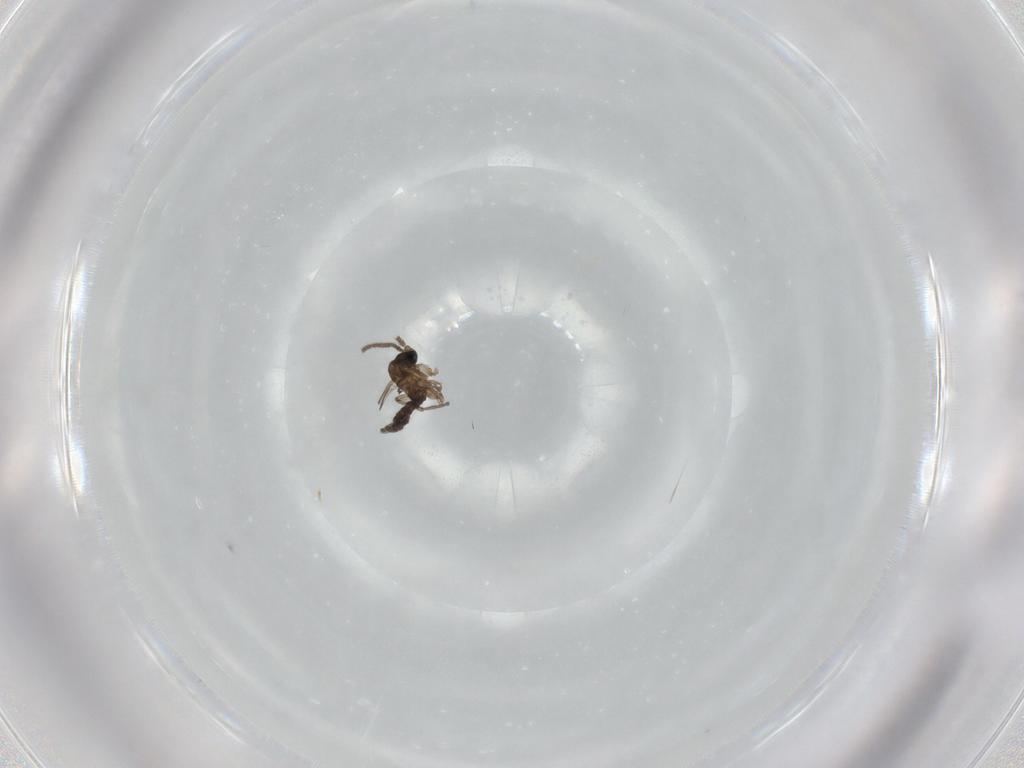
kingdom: Animalia
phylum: Arthropoda
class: Insecta
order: Diptera
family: Sciaridae
